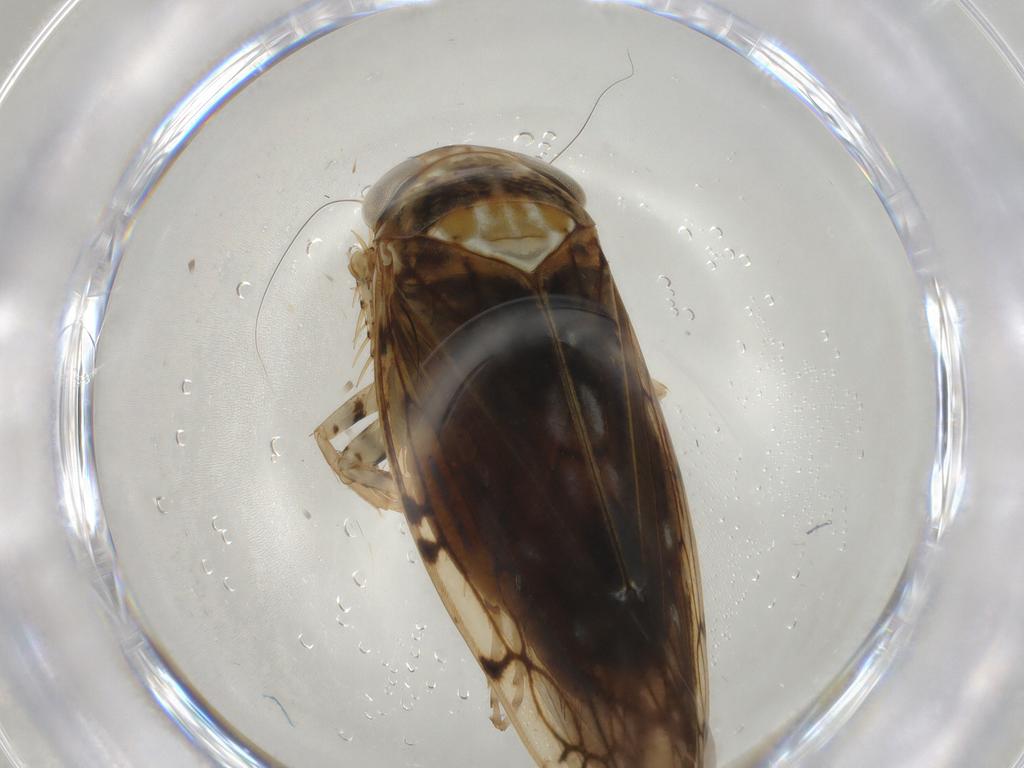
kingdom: Animalia
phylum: Arthropoda
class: Insecta
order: Hemiptera
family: Cicadellidae
